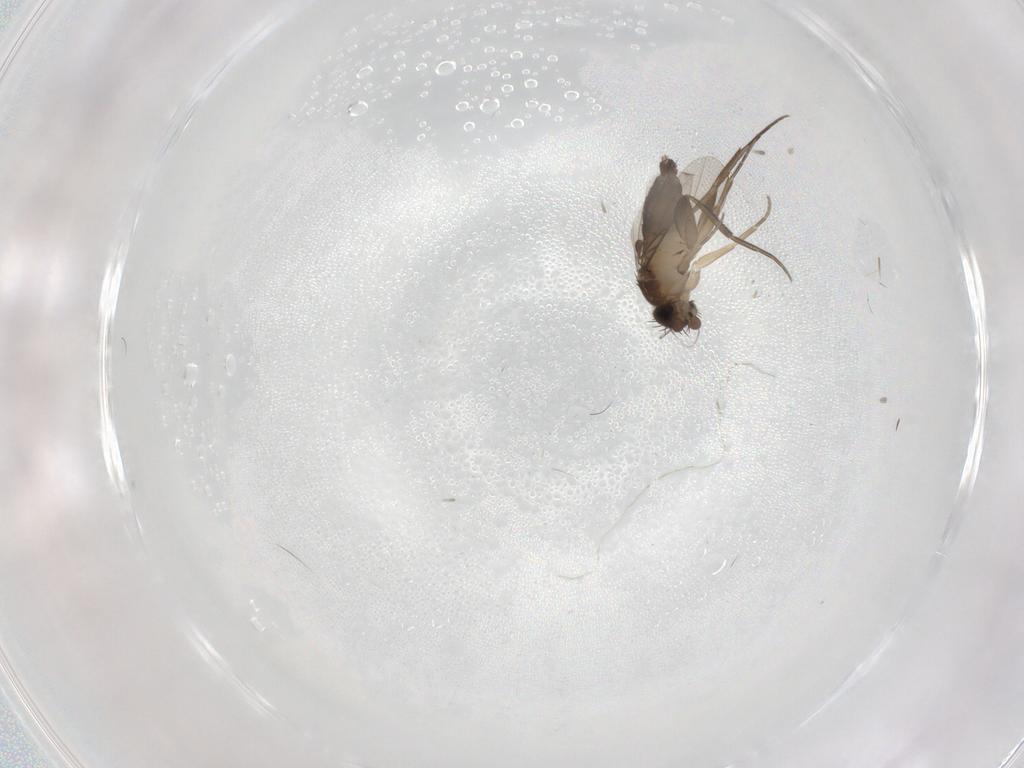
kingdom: Animalia
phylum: Arthropoda
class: Insecta
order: Diptera
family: Phoridae
